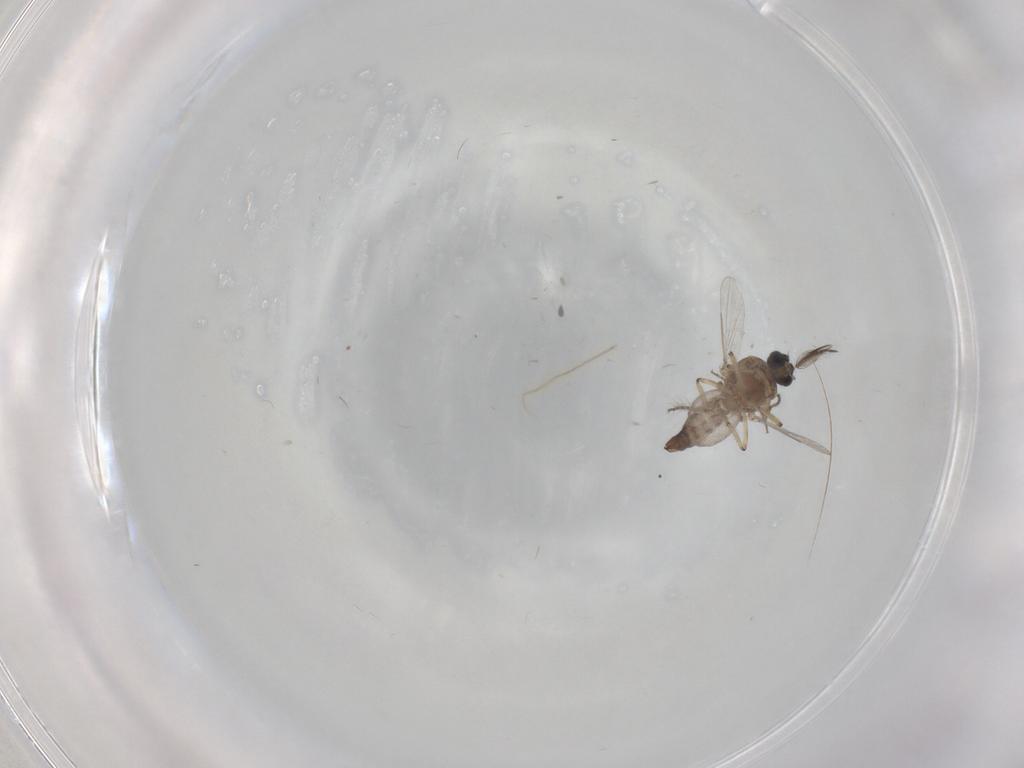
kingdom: Animalia
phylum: Arthropoda
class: Insecta
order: Diptera
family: Ceratopogonidae
